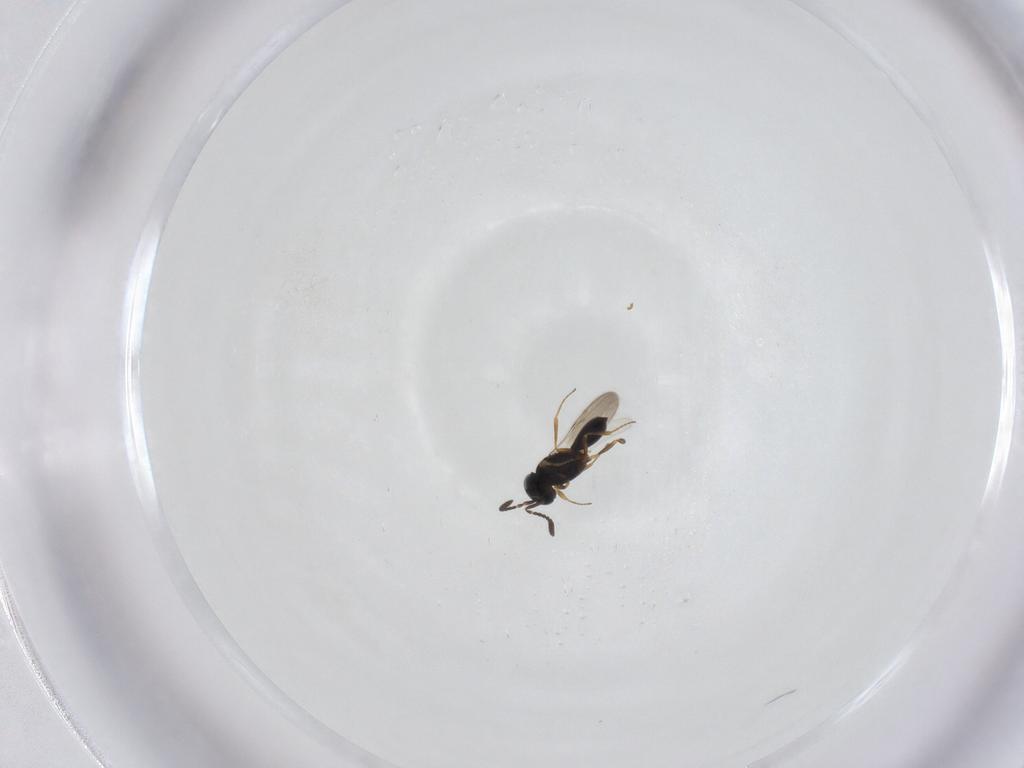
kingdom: Animalia
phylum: Arthropoda
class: Insecta
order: Hymenoptera
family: Scelionidae
